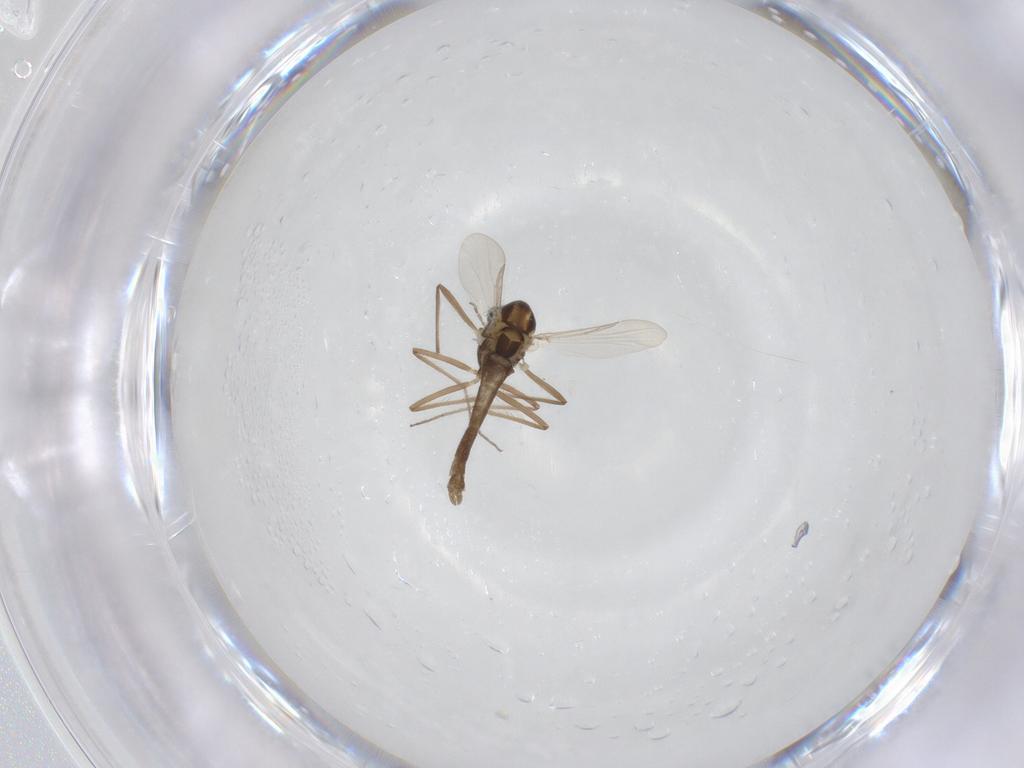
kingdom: Animalia
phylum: Arthropoda
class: Insecta
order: Diptera
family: Chironomidae
